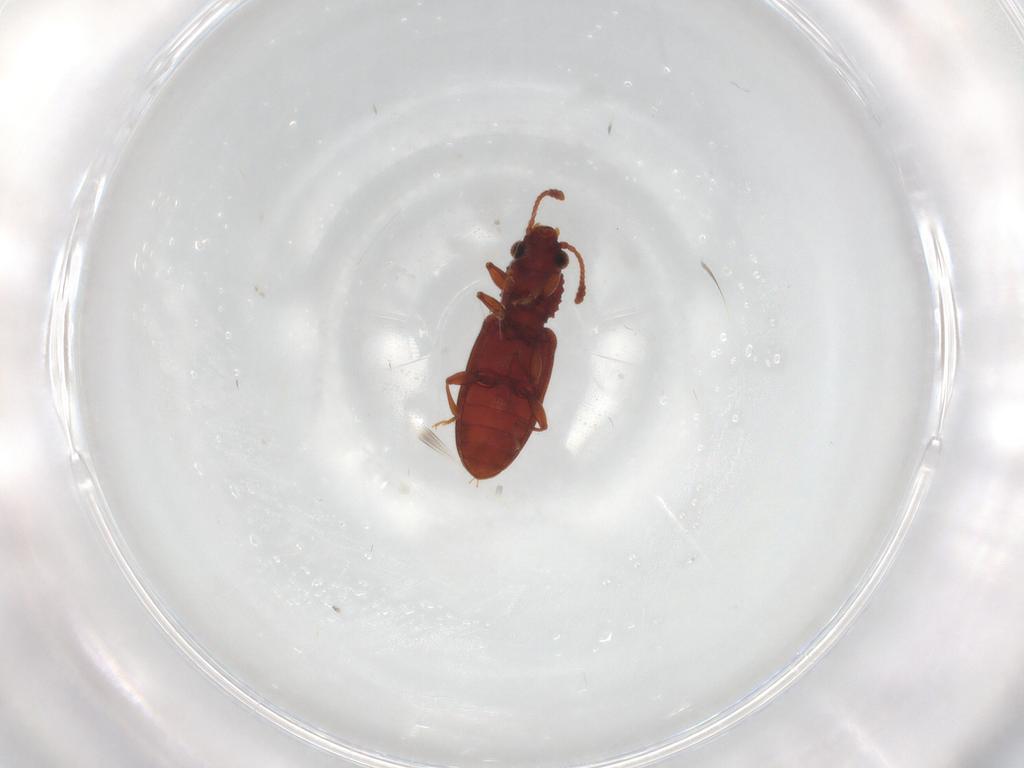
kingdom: Animalia
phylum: Arthropoda
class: Insecta
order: Coleoptera
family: Silvanidae
